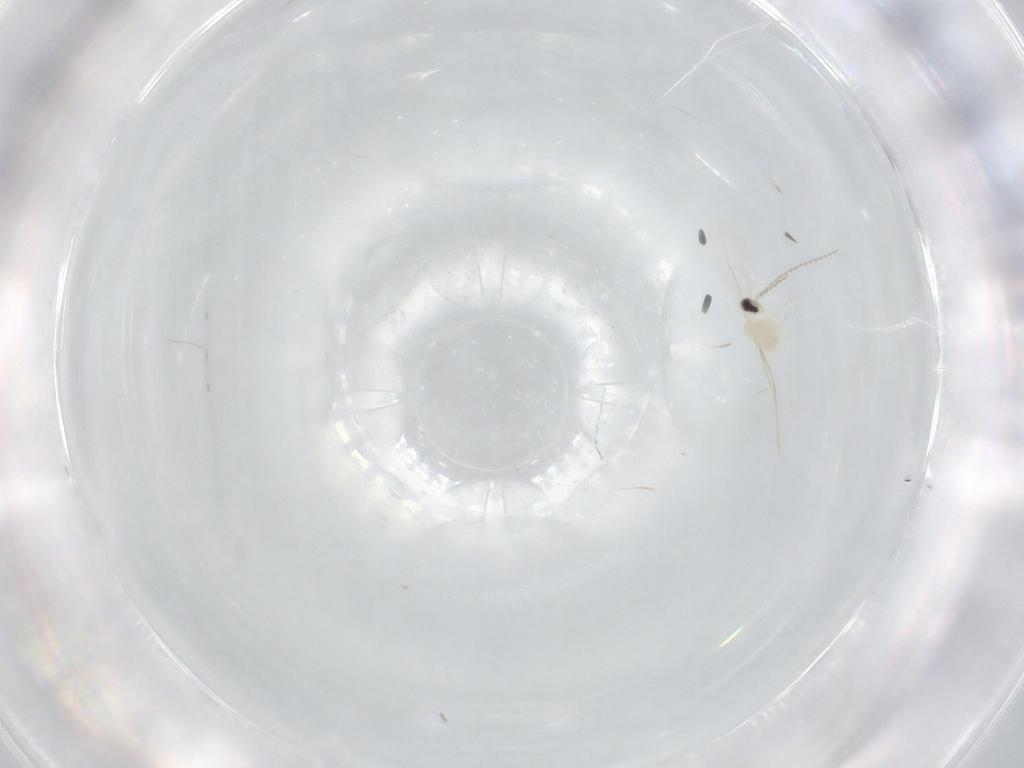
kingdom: Animalia
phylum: Arthropoda
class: Insecta
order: Diptera
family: Cecidomyiidae
